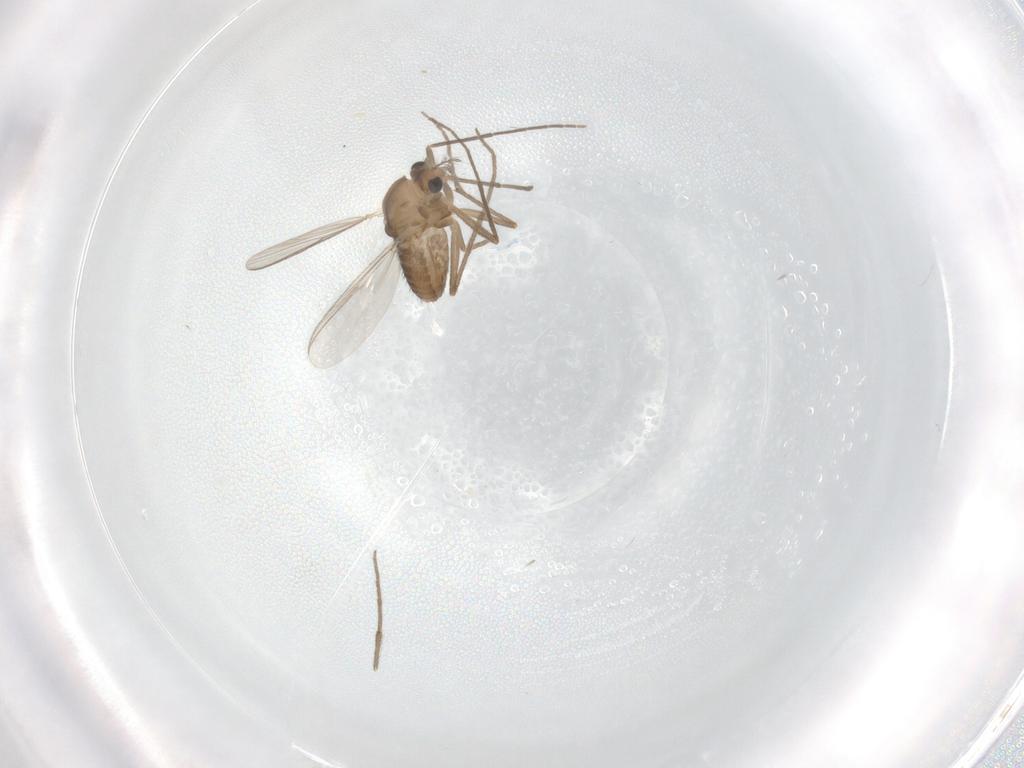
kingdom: Animalia
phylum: Arthropoda
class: Insecta
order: Diptera
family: Chironomidae
